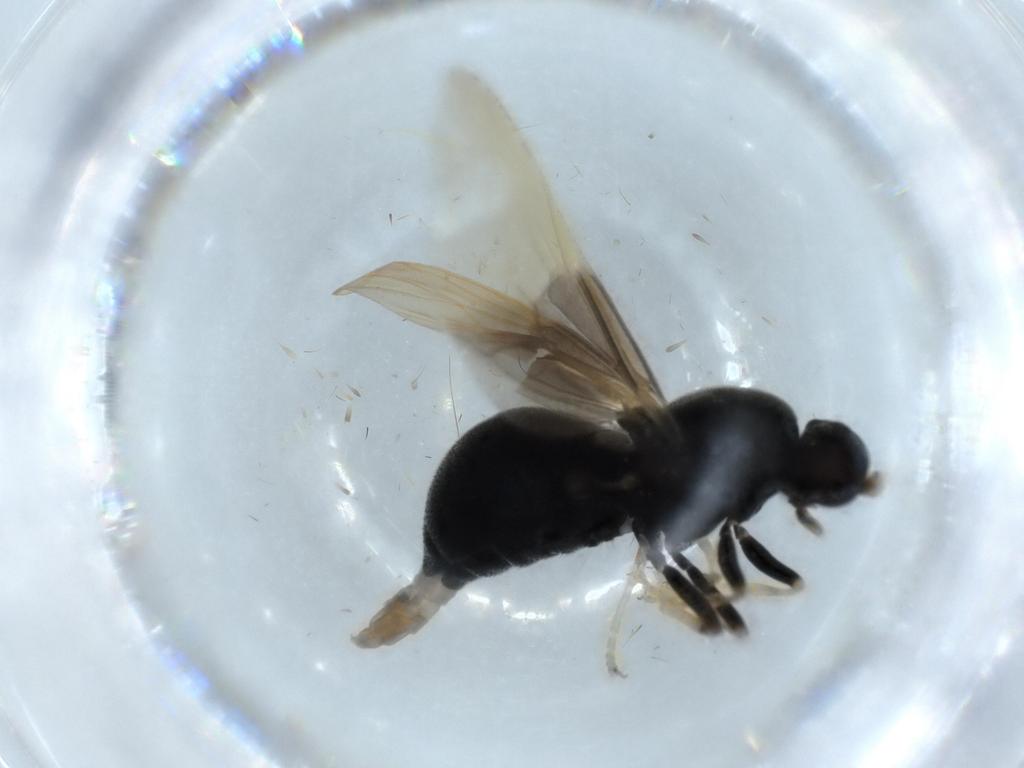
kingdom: Animalia
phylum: Arthropoda
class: Insecta
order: Diptera
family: Stratiomyidae
